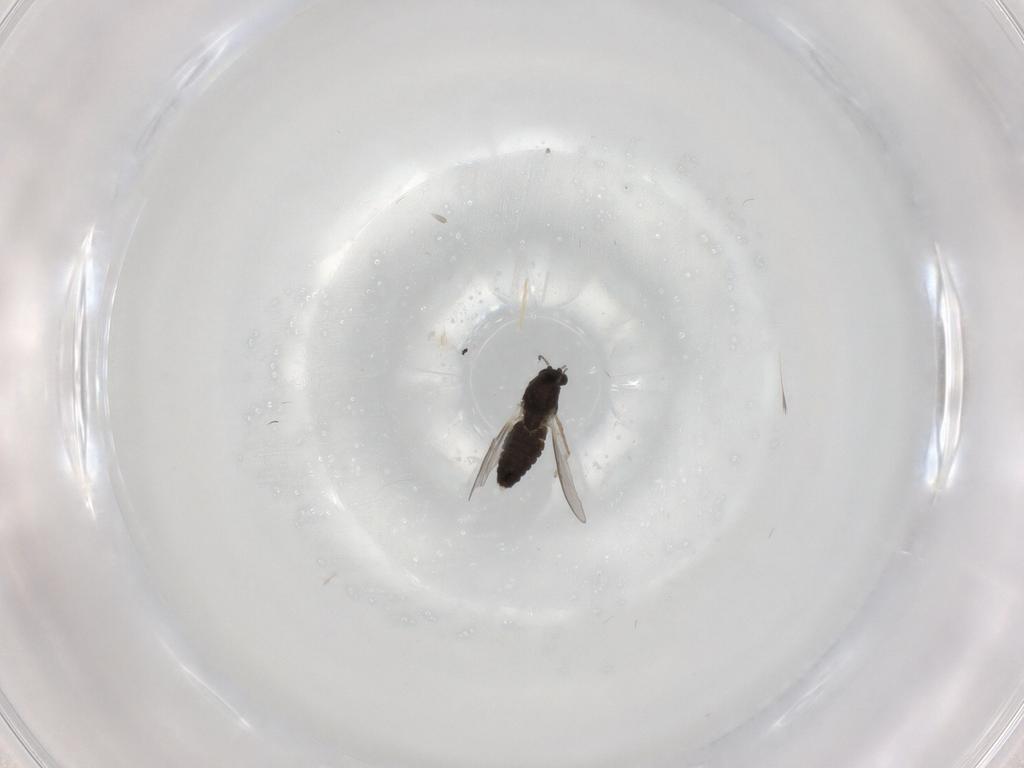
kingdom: Animalia
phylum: Arthropoda
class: Insecta
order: Diptera
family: Chironomidae
